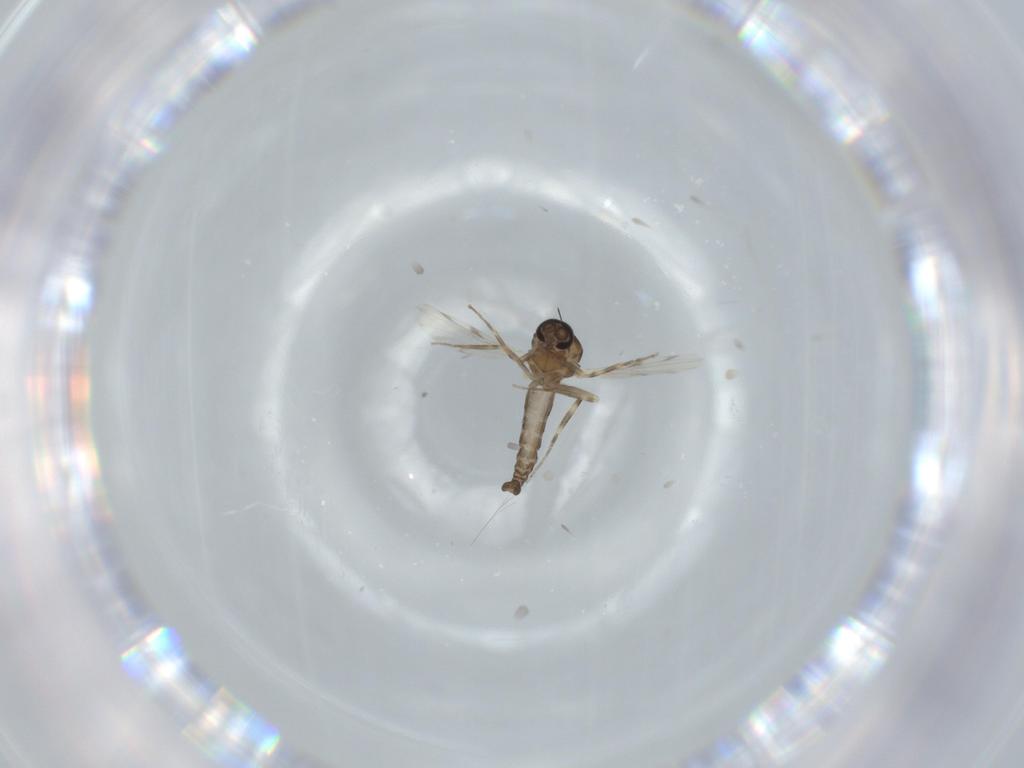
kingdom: Animalia
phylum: Arthropoda
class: Insecta
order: Diptera
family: Ceratopogonidae
